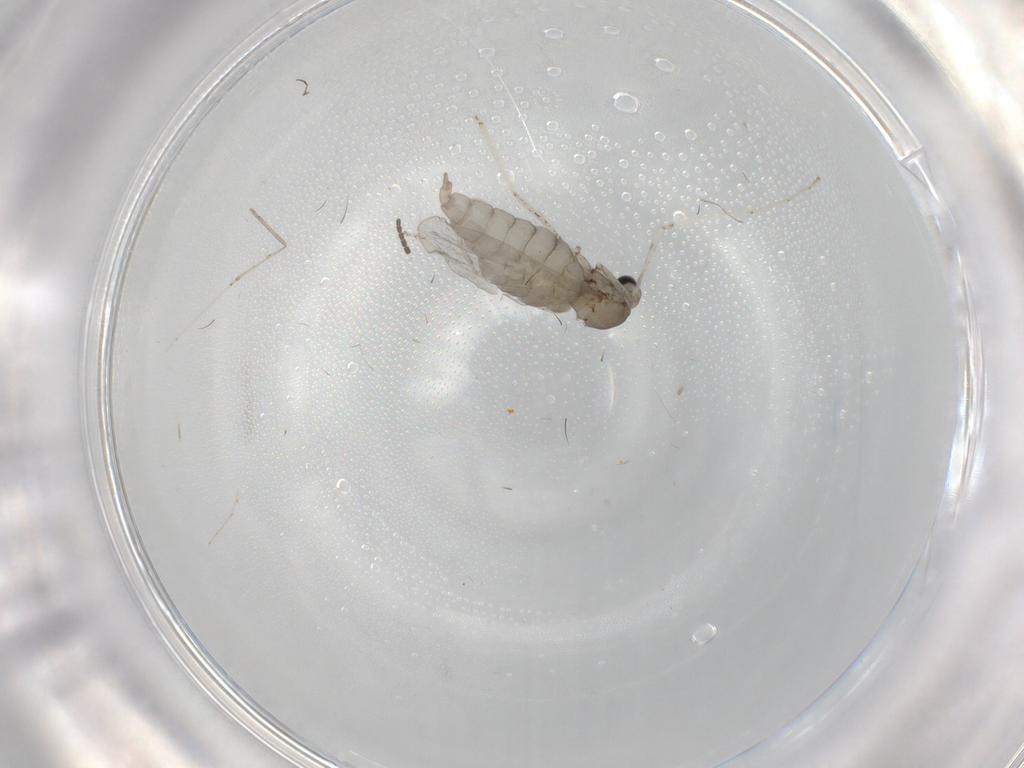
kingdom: Animalia
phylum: Arthropoda
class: Insecta
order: Diptera
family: Cecidomyiidae
